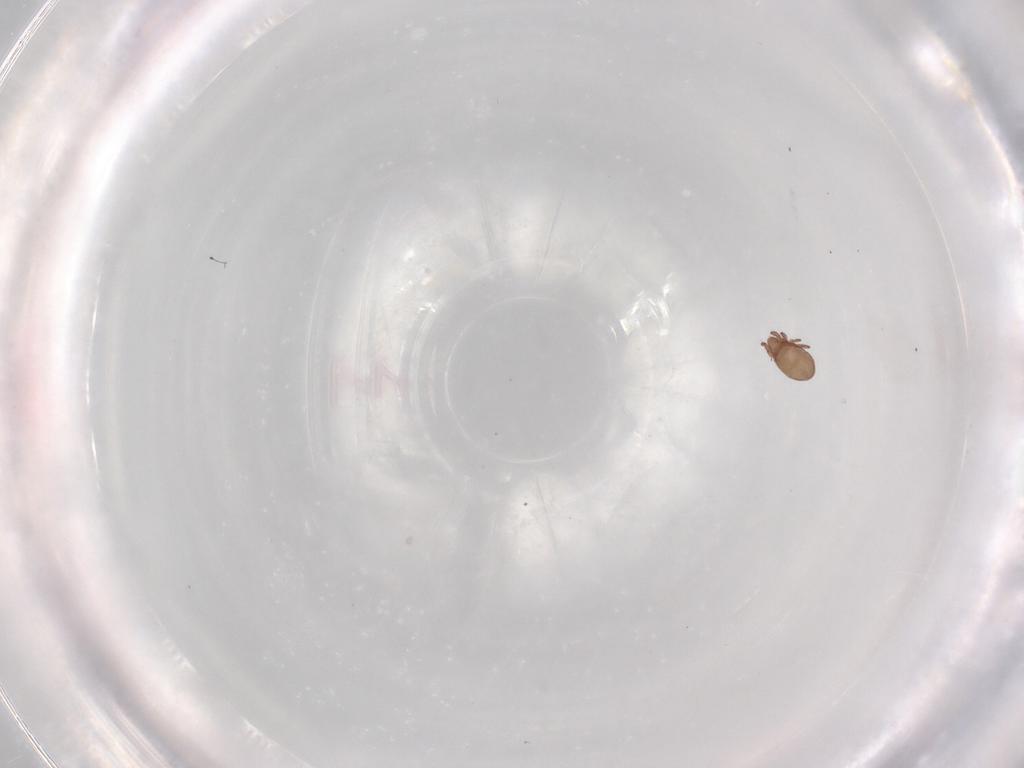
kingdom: Animalia
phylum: Arthropoda
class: Arachnida
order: Sarcoptiformes
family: Eremaeidae
